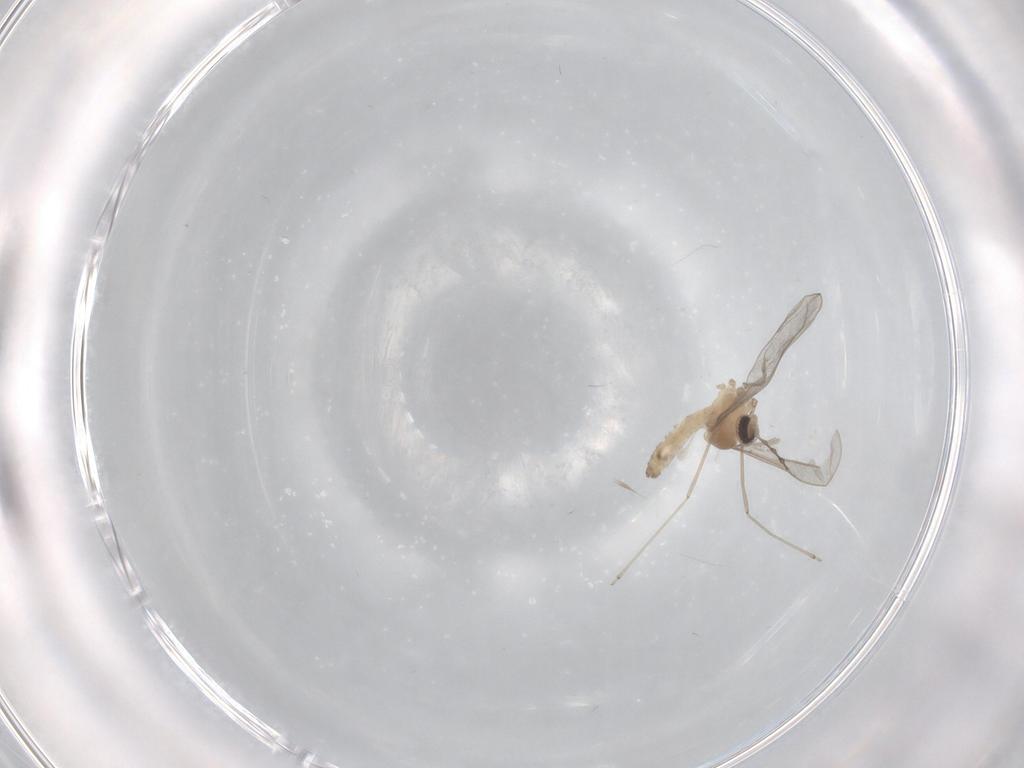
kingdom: Animalia
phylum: Arthropoda
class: Insecta
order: Diptera
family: Cecidomyiidae
